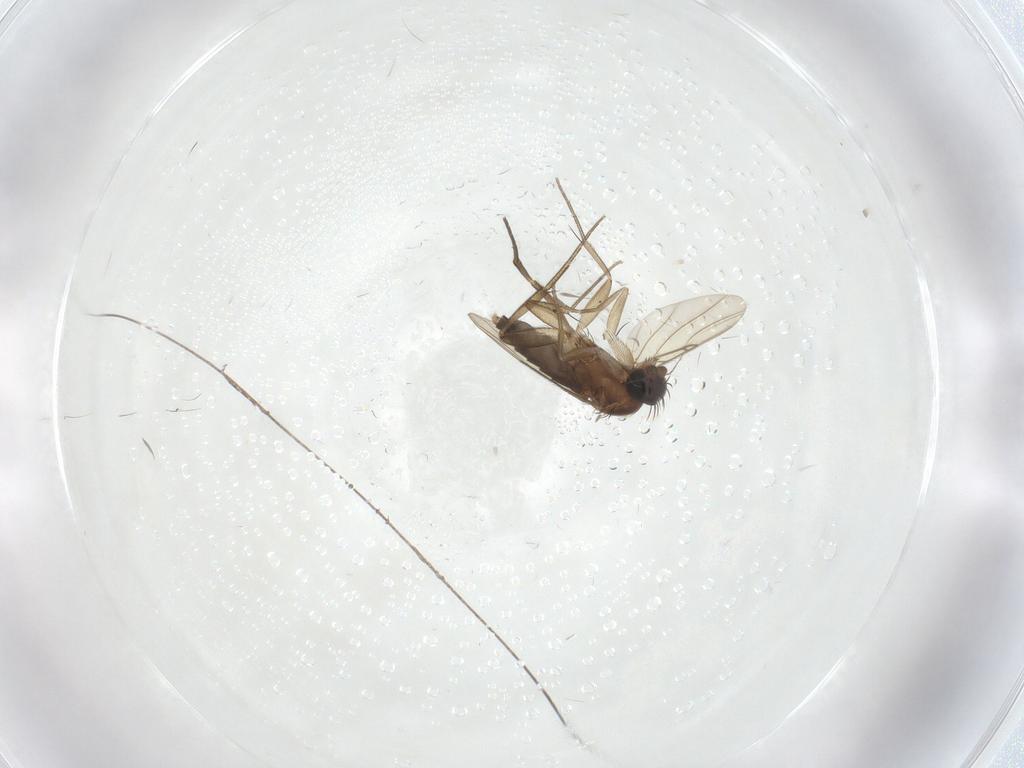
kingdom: Animalia
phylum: Arthropoda
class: Insecta
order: Diptera
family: Phoridae
